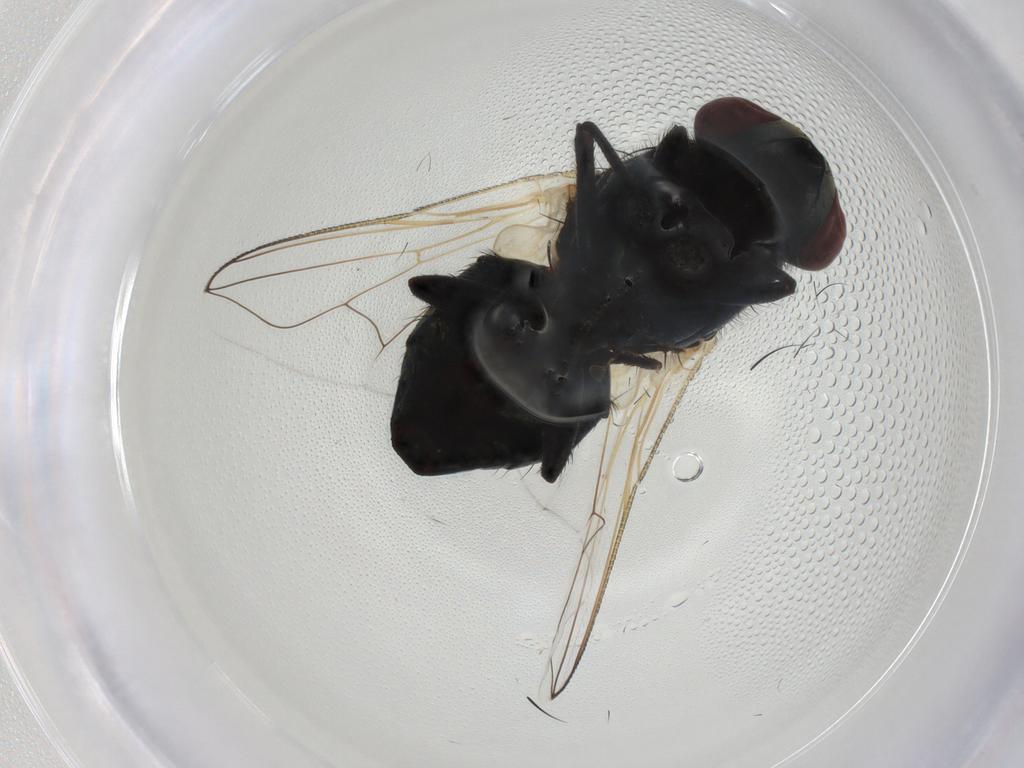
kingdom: Animalia
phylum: Arthropoda
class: Insecta
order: Diptera
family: Muscidae
